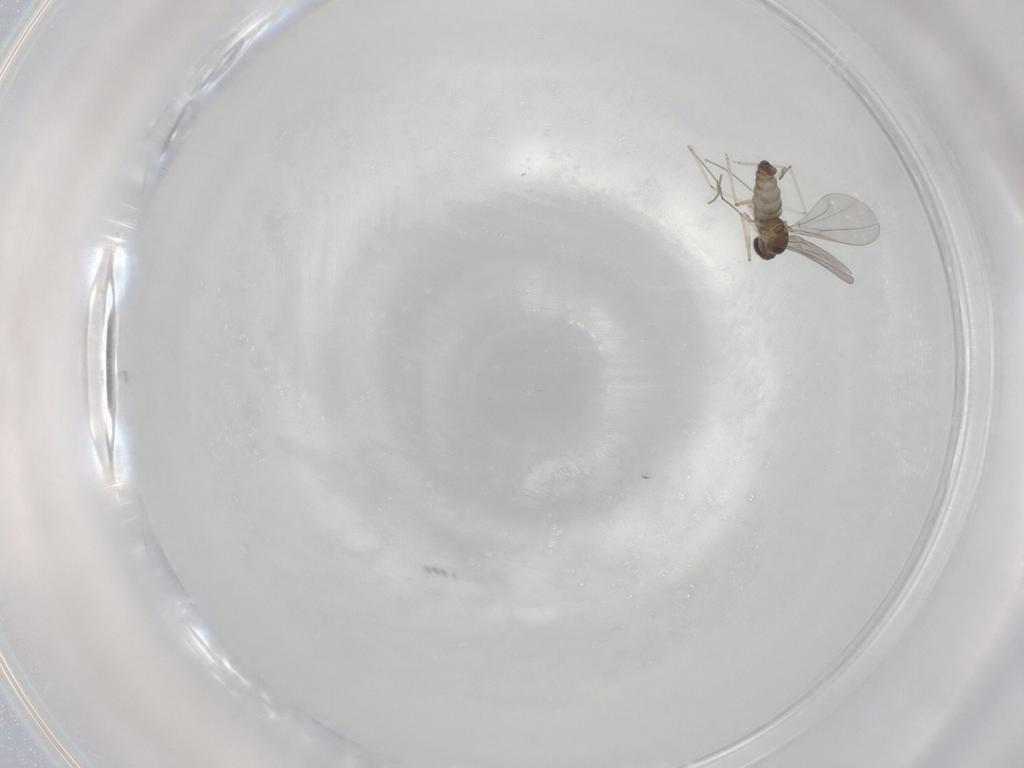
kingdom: Animalia
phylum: Arthropoda
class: Insecta
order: Diptera
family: Cecidomyiidae
